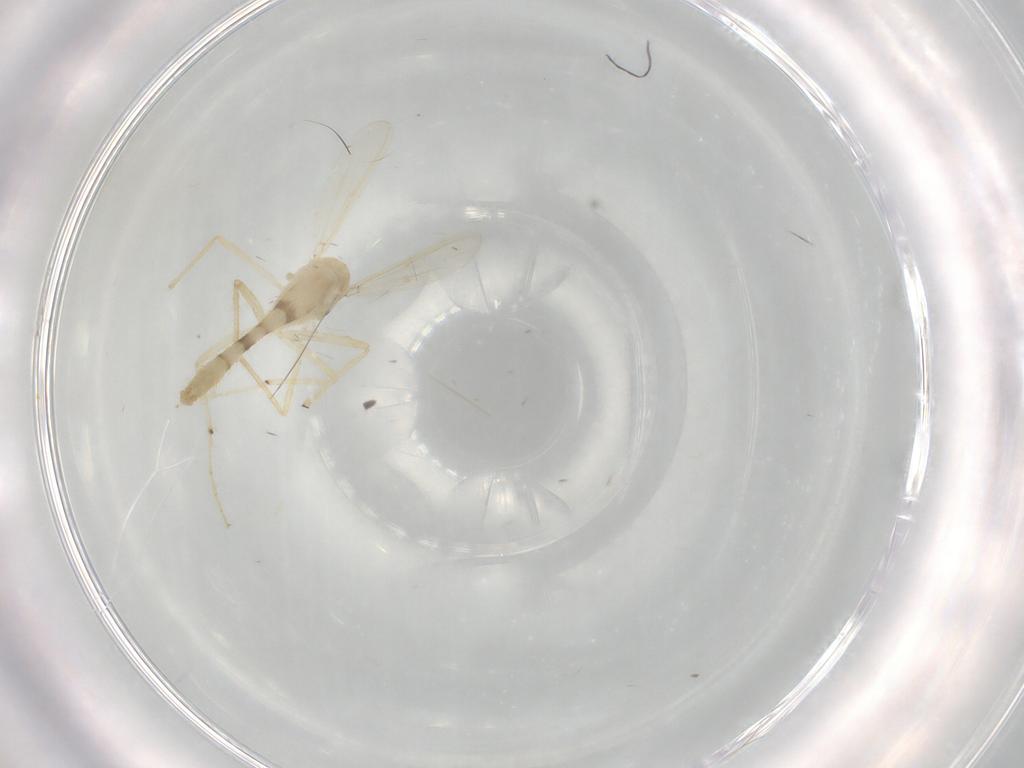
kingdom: Animalia
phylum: Arthropoda
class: Insecta
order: Diptera
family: Chironomidae
